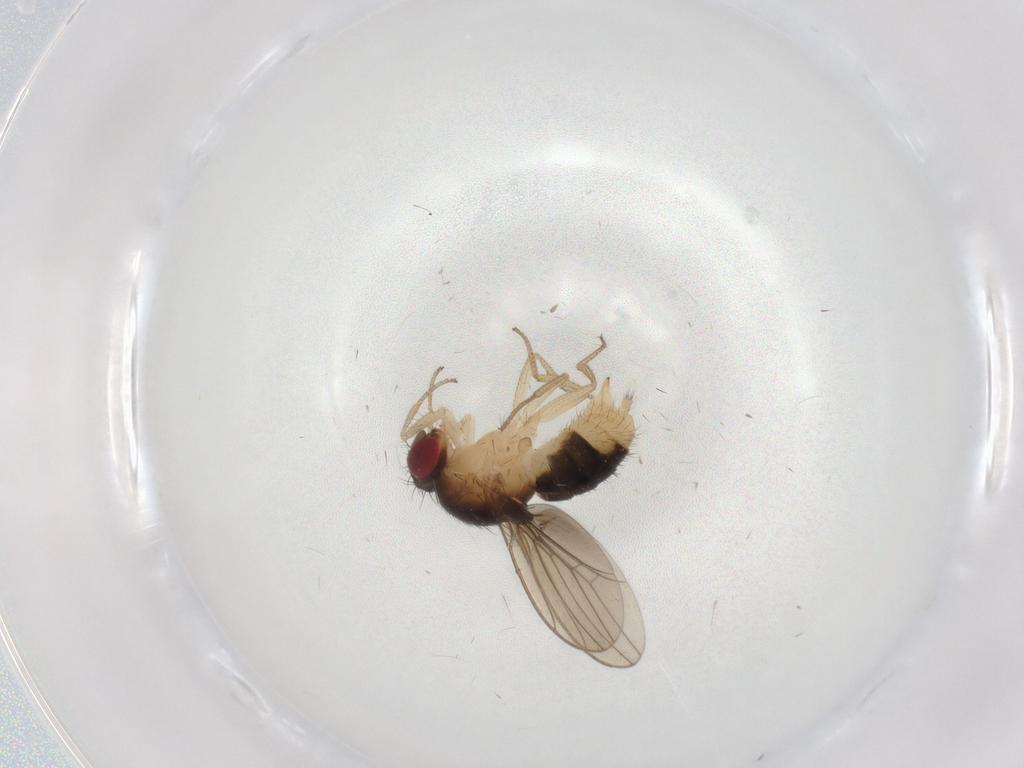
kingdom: Animalia
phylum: Arthropoda
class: Insecta
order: Diptera
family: Drosophilidae
